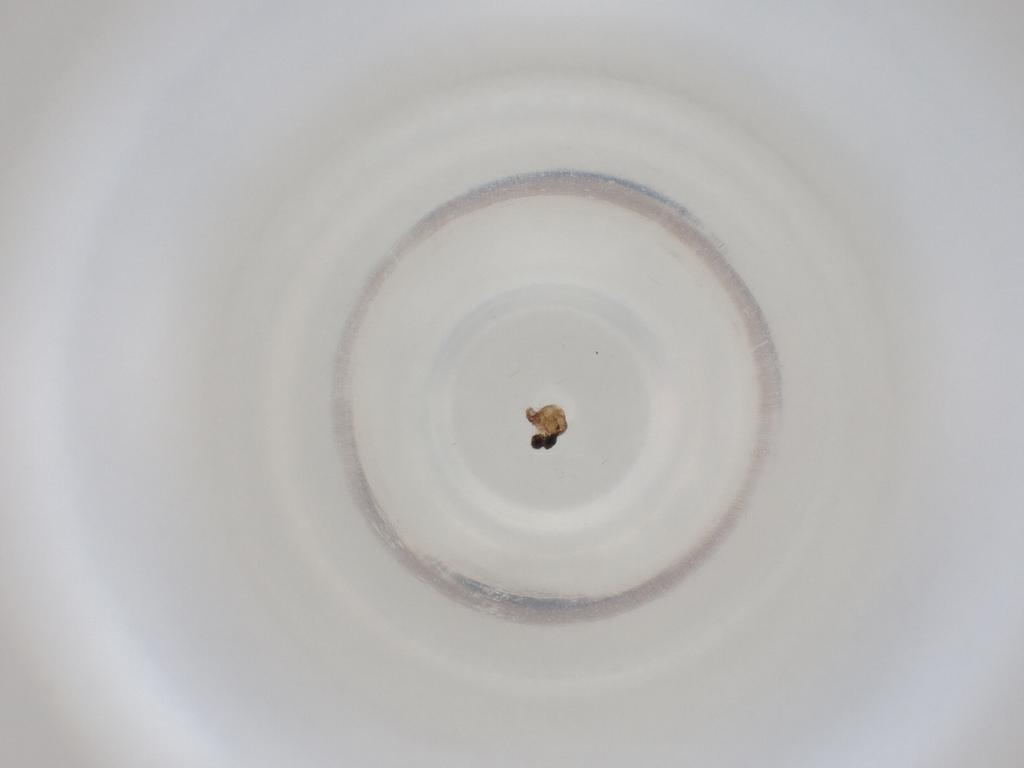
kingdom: Animalia
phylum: Arthropoda
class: Insecta
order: Diptera
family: Cecidomyiidae
